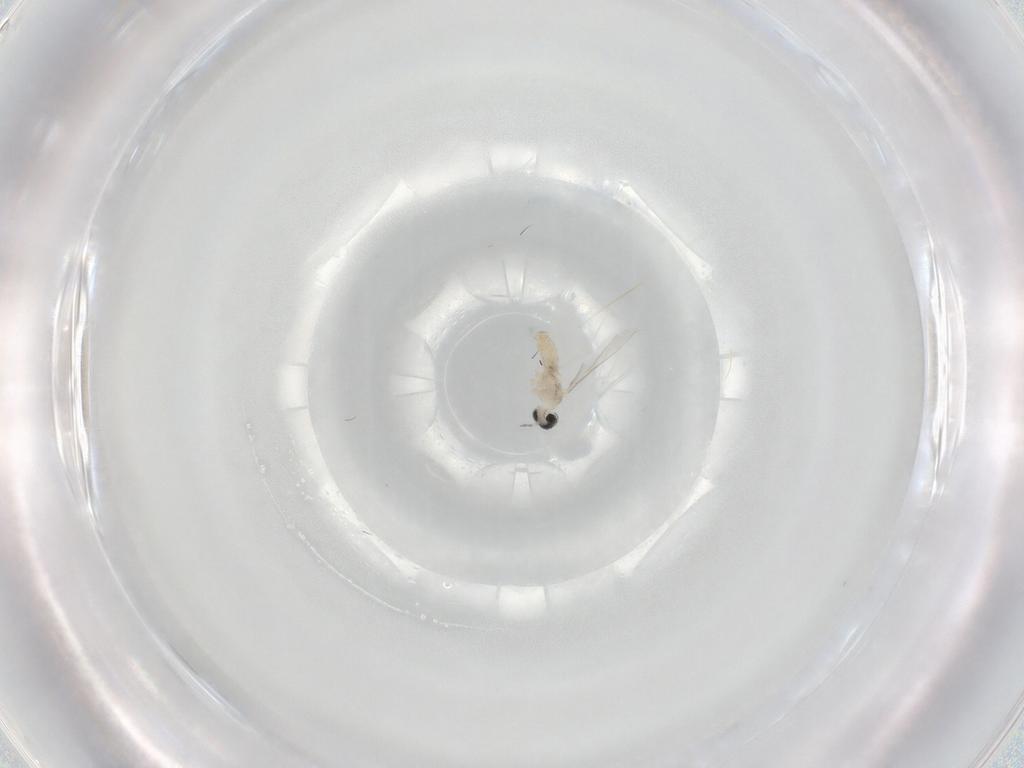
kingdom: Animalia
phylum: Arthropoda
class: Insecta
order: Diptera
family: Cecidomyiidae
